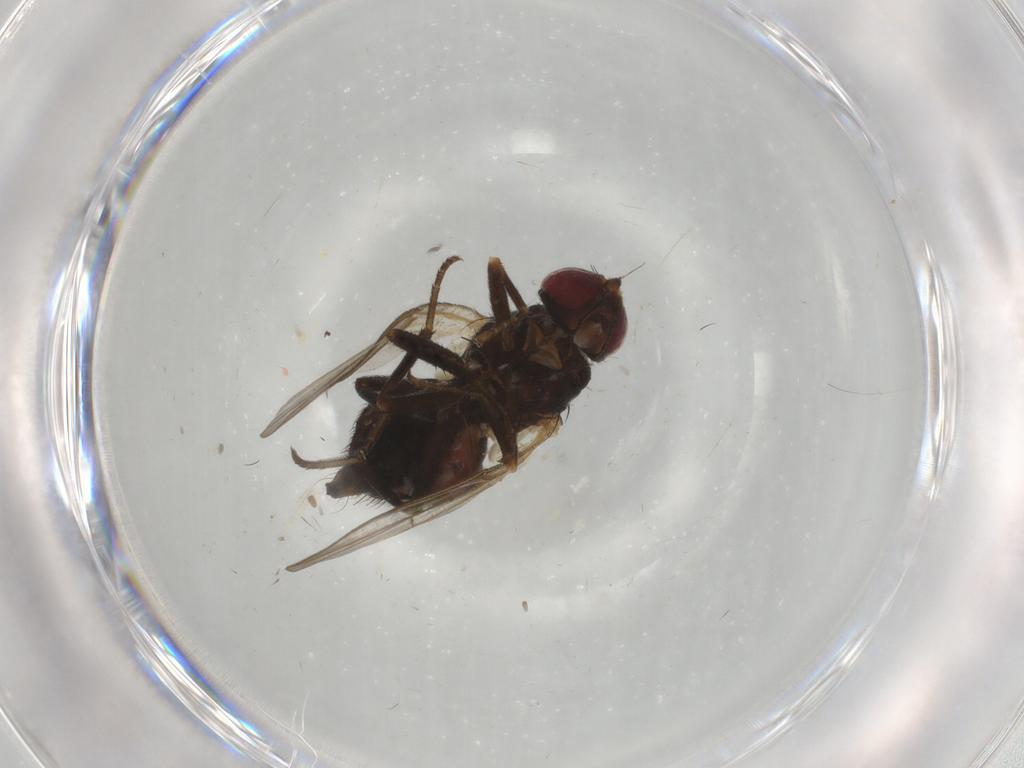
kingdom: Animalia
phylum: Arthropoda
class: Insecta
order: Diptera
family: Agromyzidae
